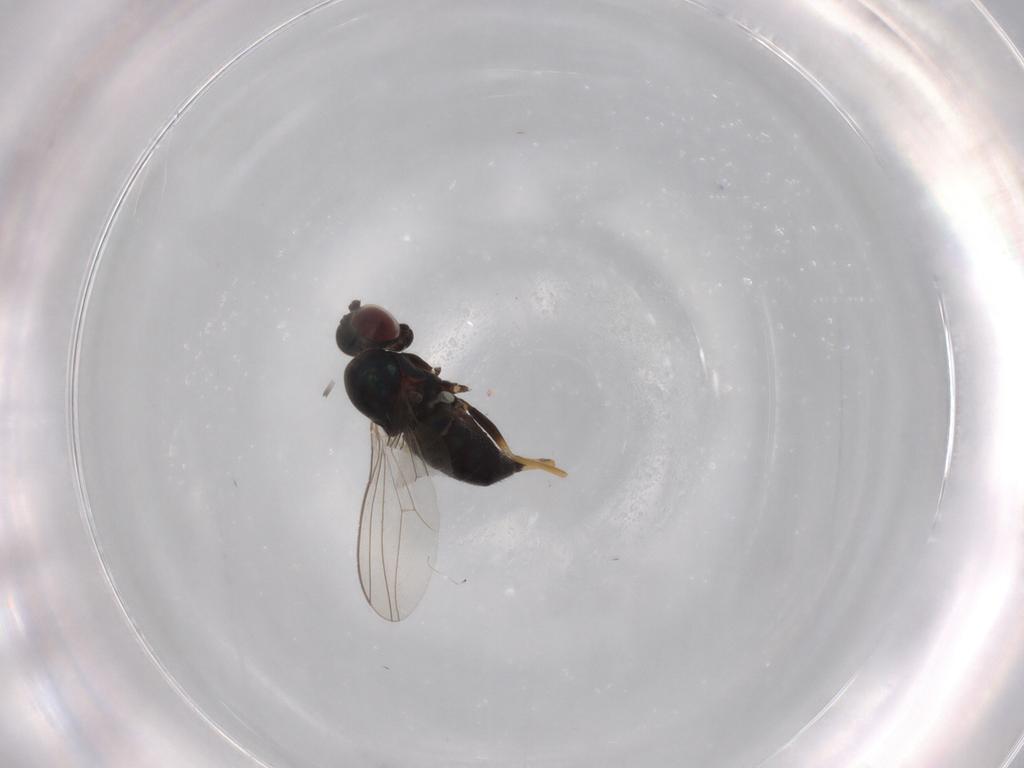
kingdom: Animalia
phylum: Arthropoda
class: Insecta
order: Diptera
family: Dolichopodidae
